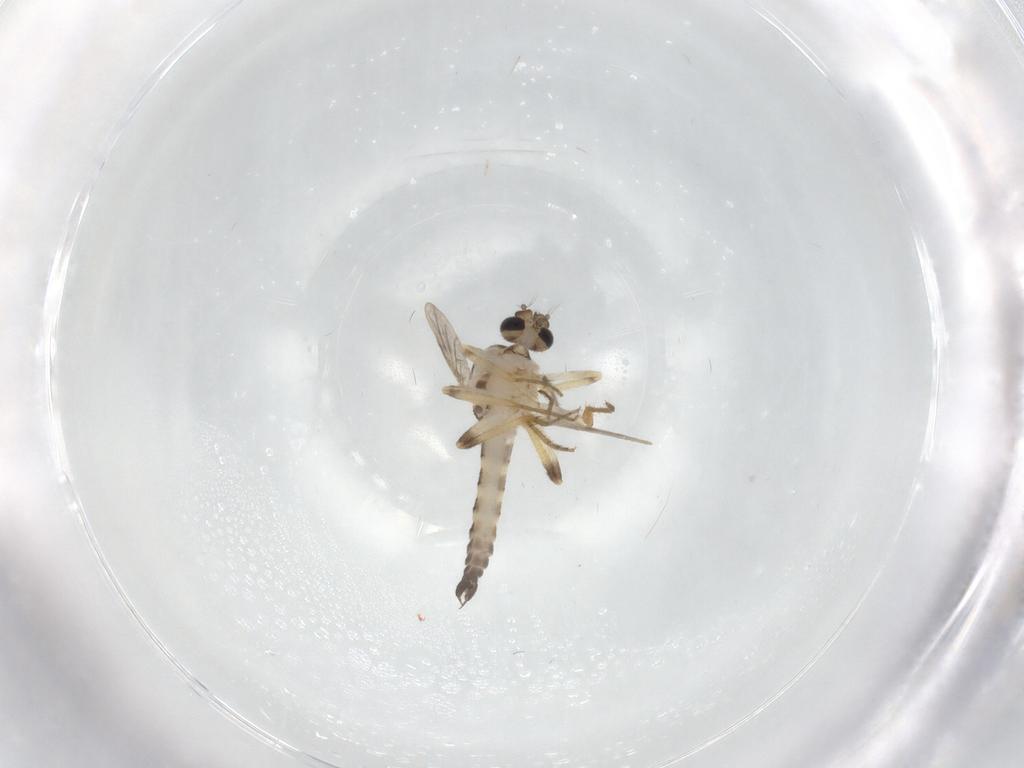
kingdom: Animalia
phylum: Arthropoda
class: Insecta
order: Diptera
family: Ceratopogonidae
